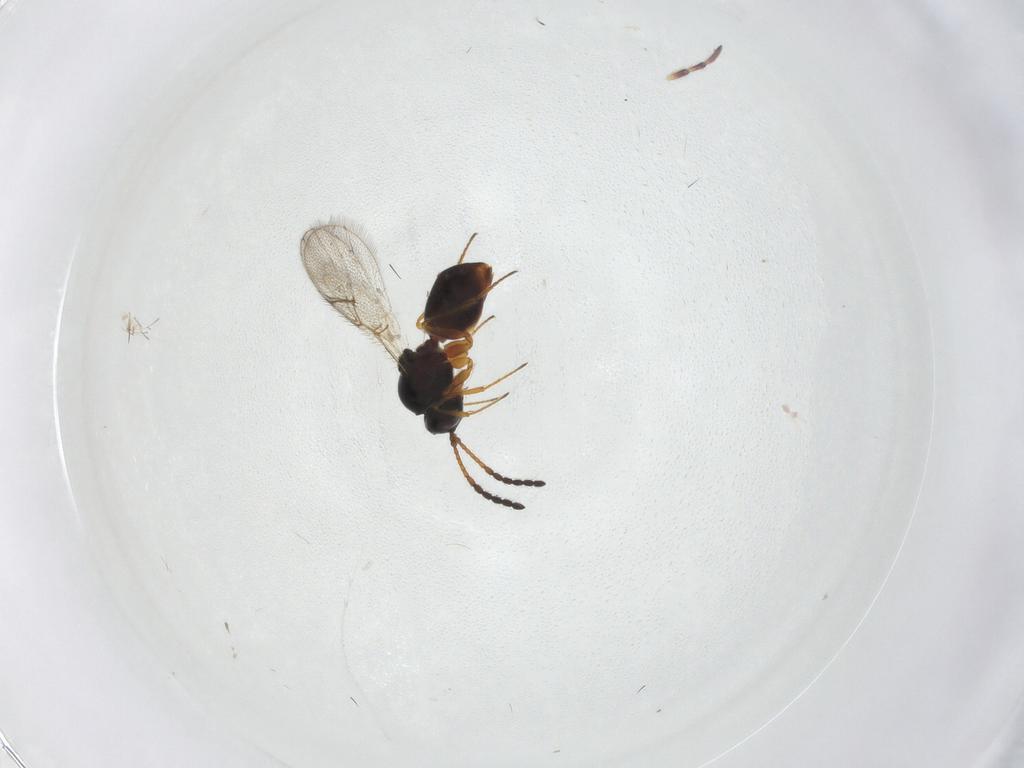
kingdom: Animalia
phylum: Arthropoda
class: Insecta
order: Hymenoptera
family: Figitidae
